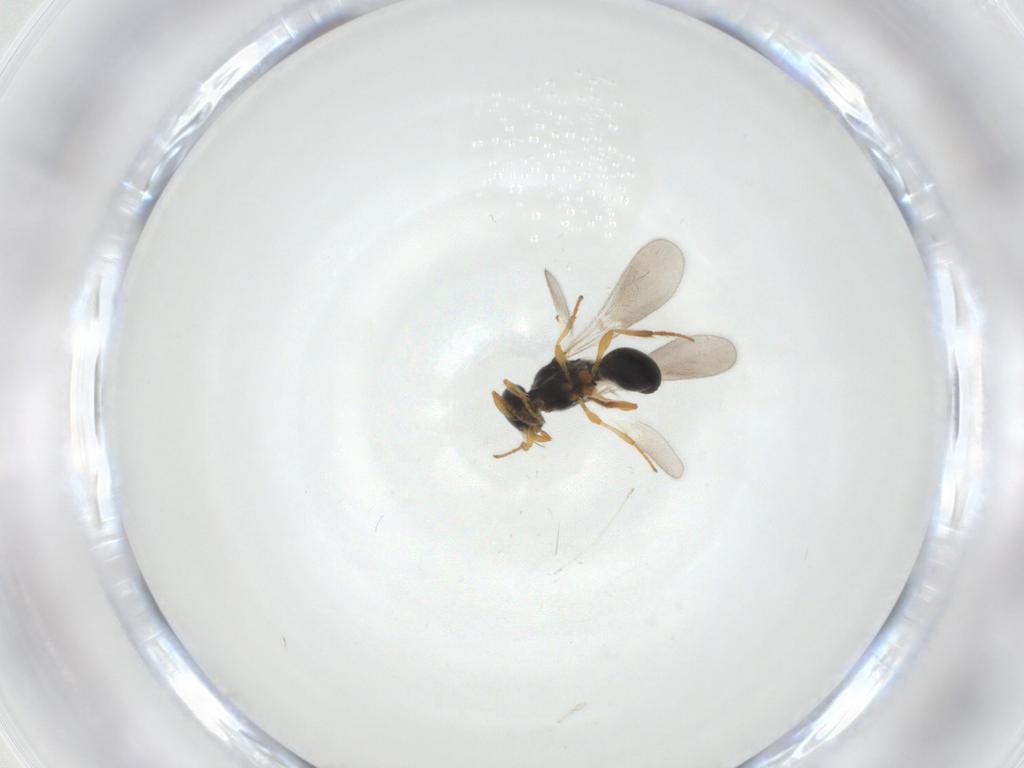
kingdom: Animalia
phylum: Arthropoda
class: Insecta
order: Hymenoptera
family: Platygastridae
